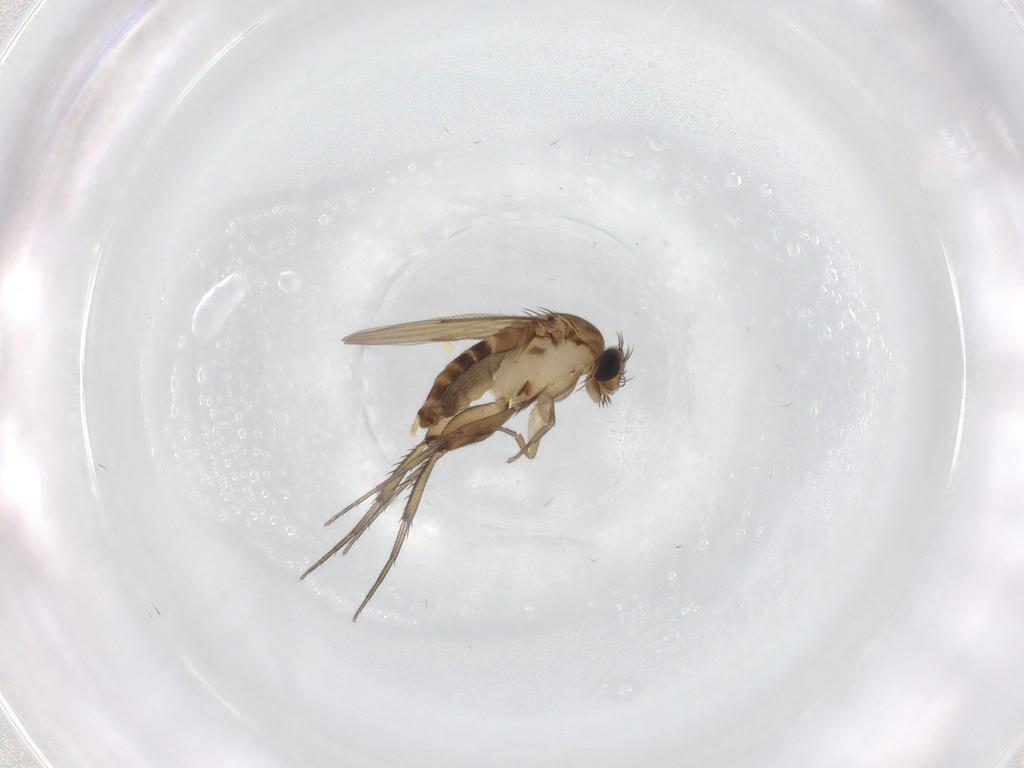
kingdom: Animalia
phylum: Arthropoda
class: Insecta
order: Diptera
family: Phoridae
